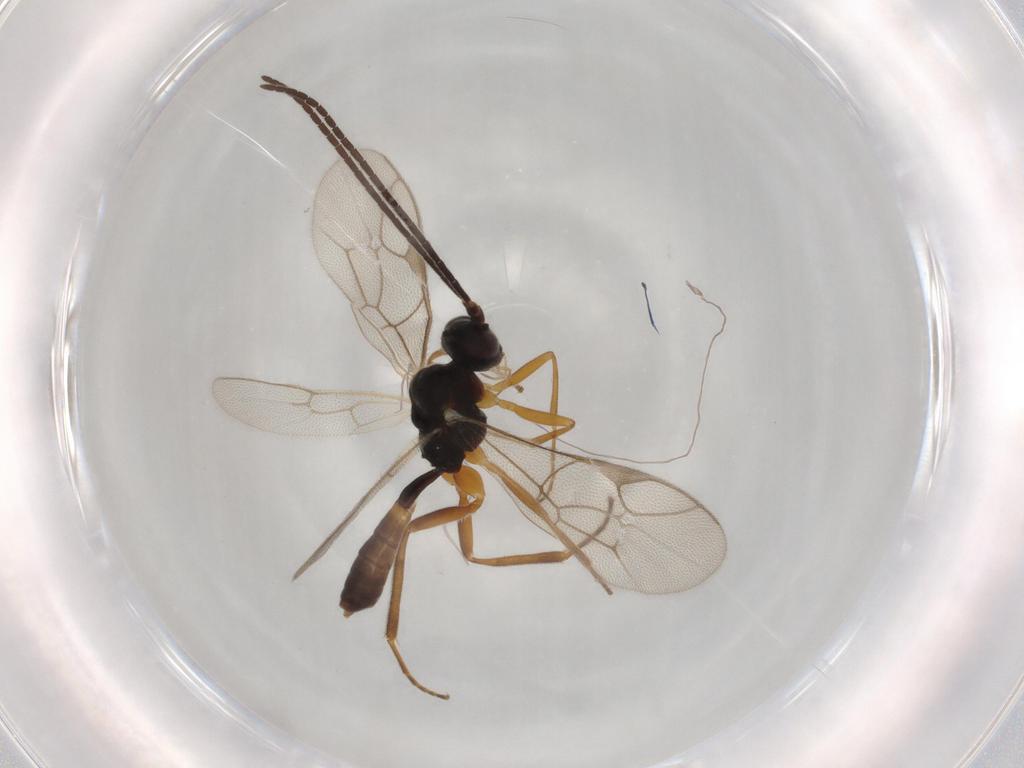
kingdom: Animalia
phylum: Arthropoda
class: Insecta
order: Hymenoptera
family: Ichneumonidae
